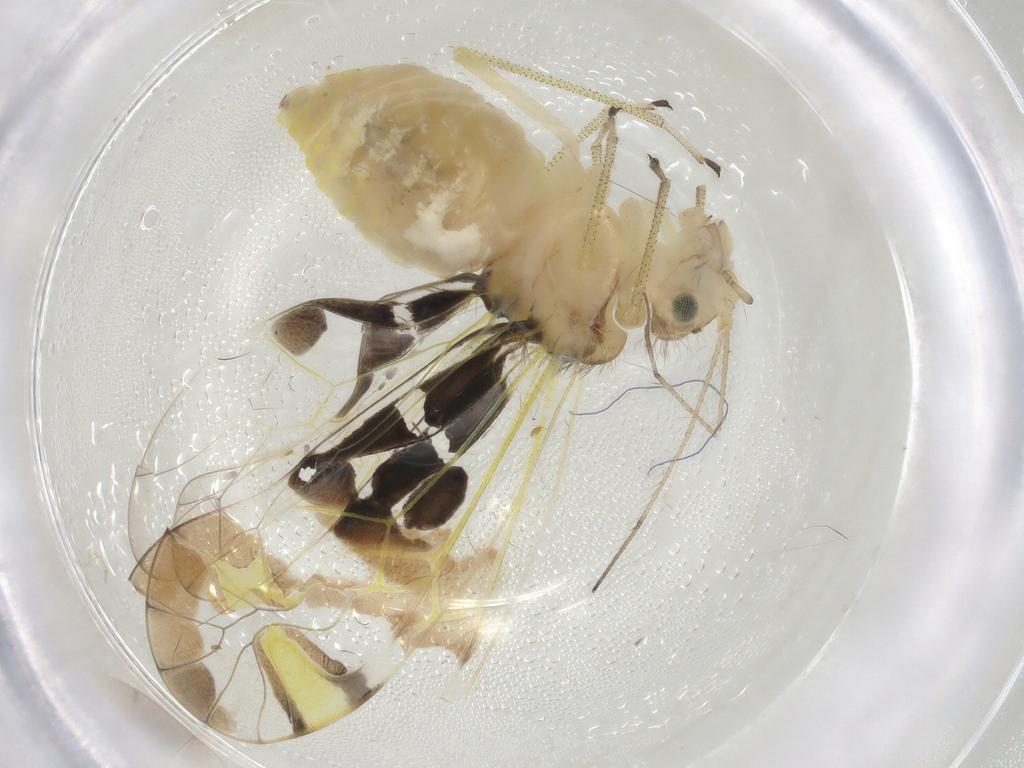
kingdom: Animalia
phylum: Arthropoda
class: Insecta
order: Psocodea
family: Amphipsocidae
